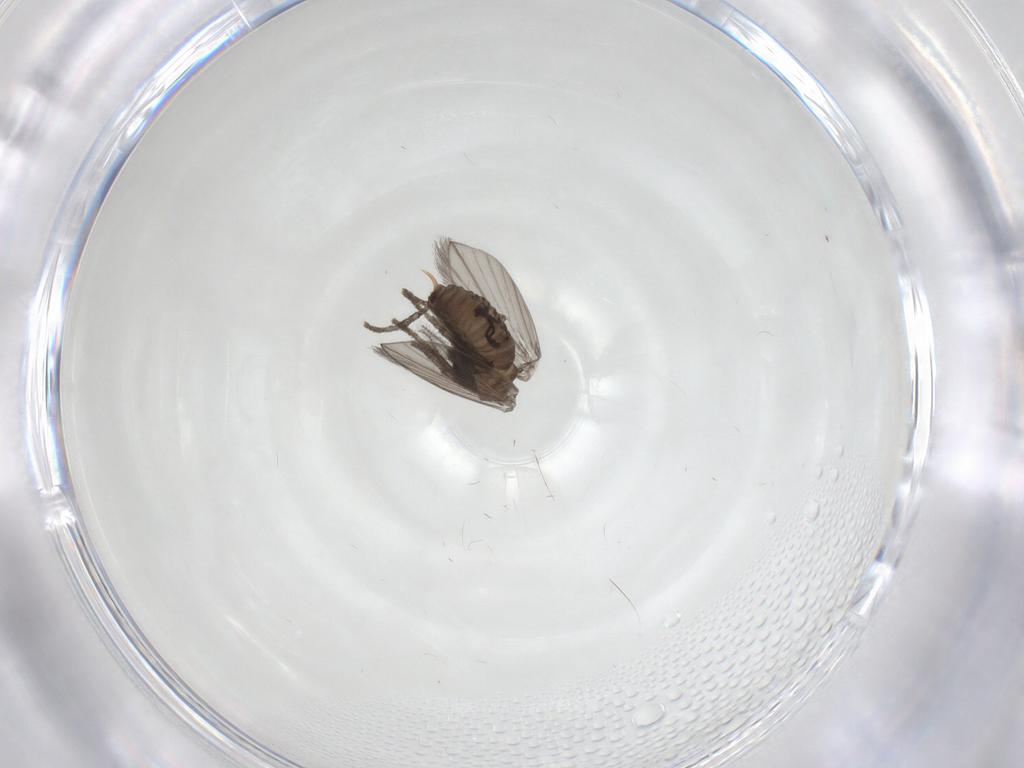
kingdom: Animalia
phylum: Arthropoda
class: Insecta
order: Diptera
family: Psychodidae
